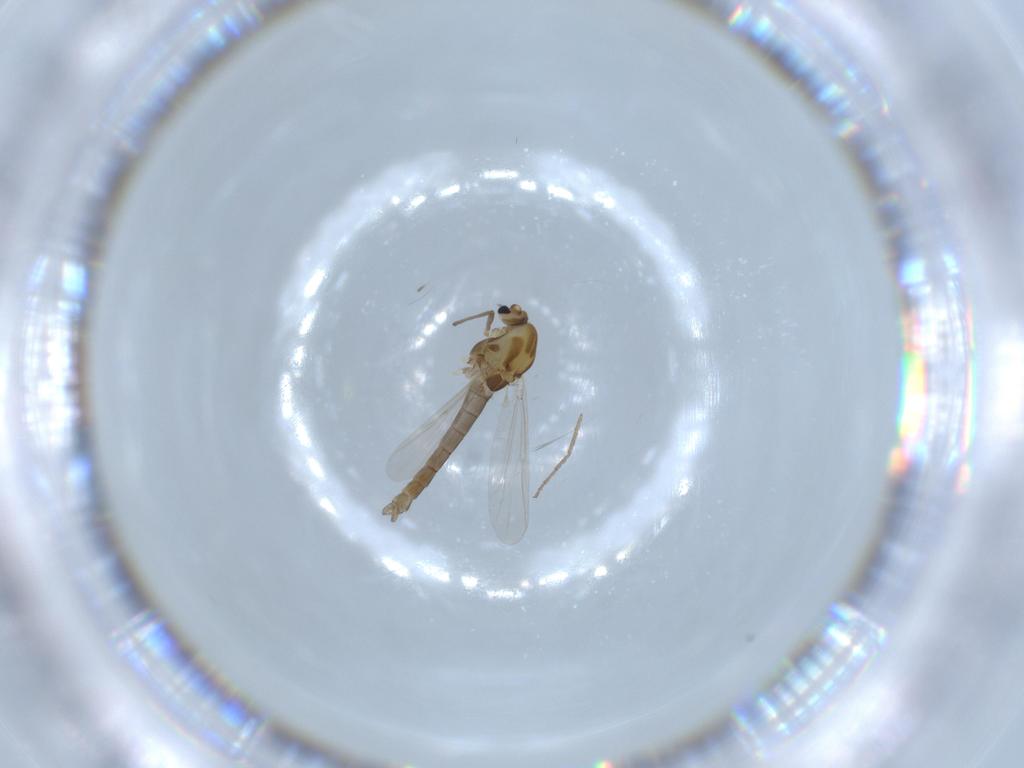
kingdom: Animalia
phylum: Arthropoda
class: Insecta
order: Diptera
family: Chironomidae
